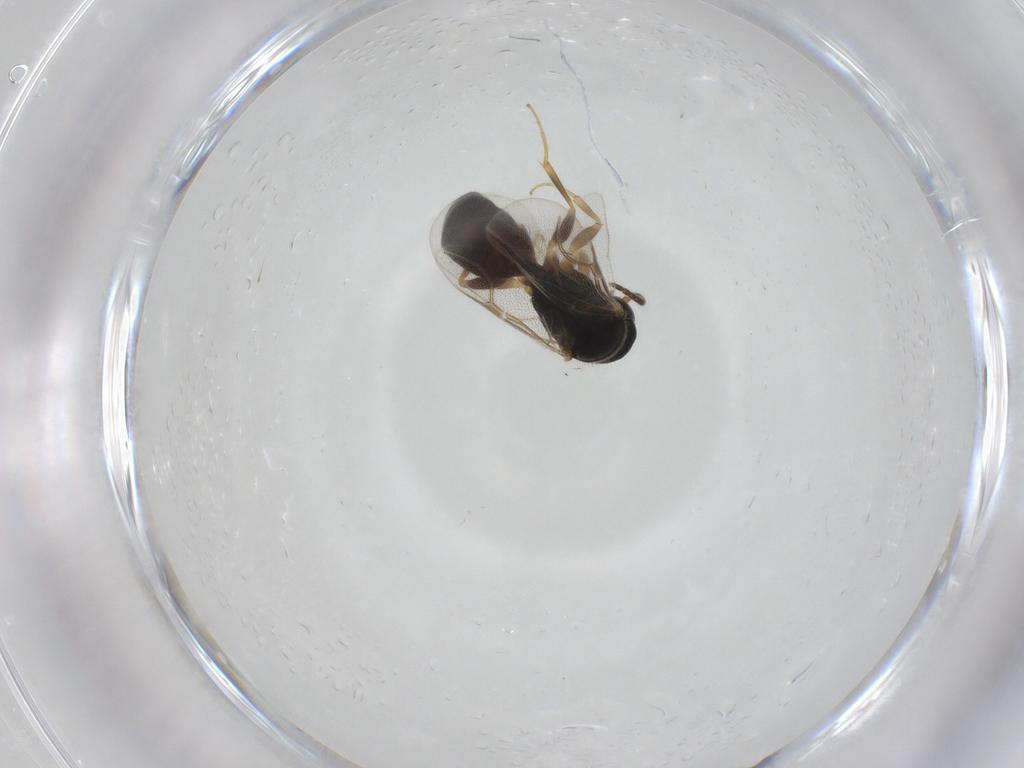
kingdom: Animalia
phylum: Arthropoda
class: Insecta
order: Hymenoptera
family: Bethylidae
